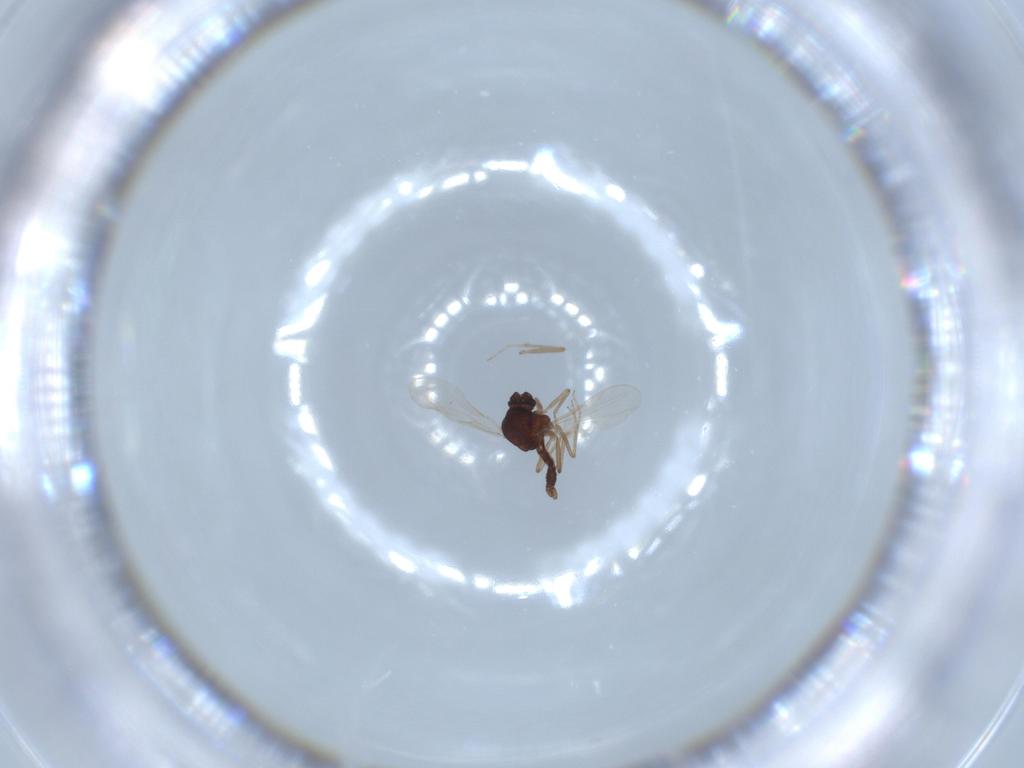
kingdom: Animalia
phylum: Arthropoda
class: Insecta
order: Diptera
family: Ceratopogonidae
